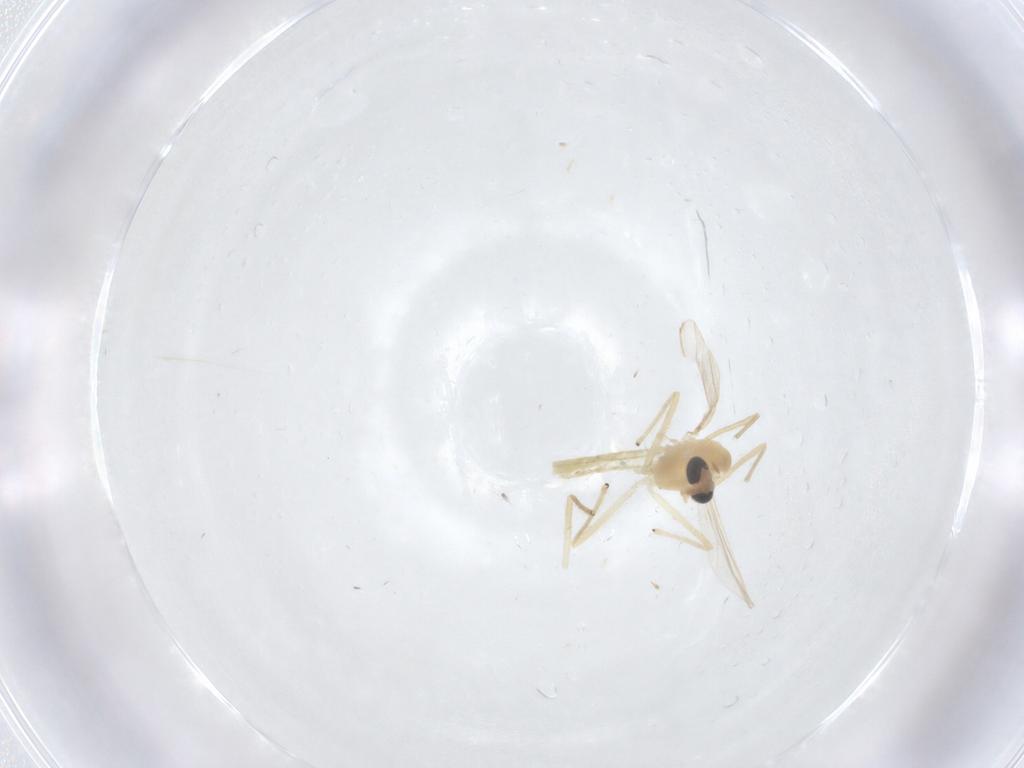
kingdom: Animalia
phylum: Arthropoda
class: Insecta
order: Diptera
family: Chironomidae
